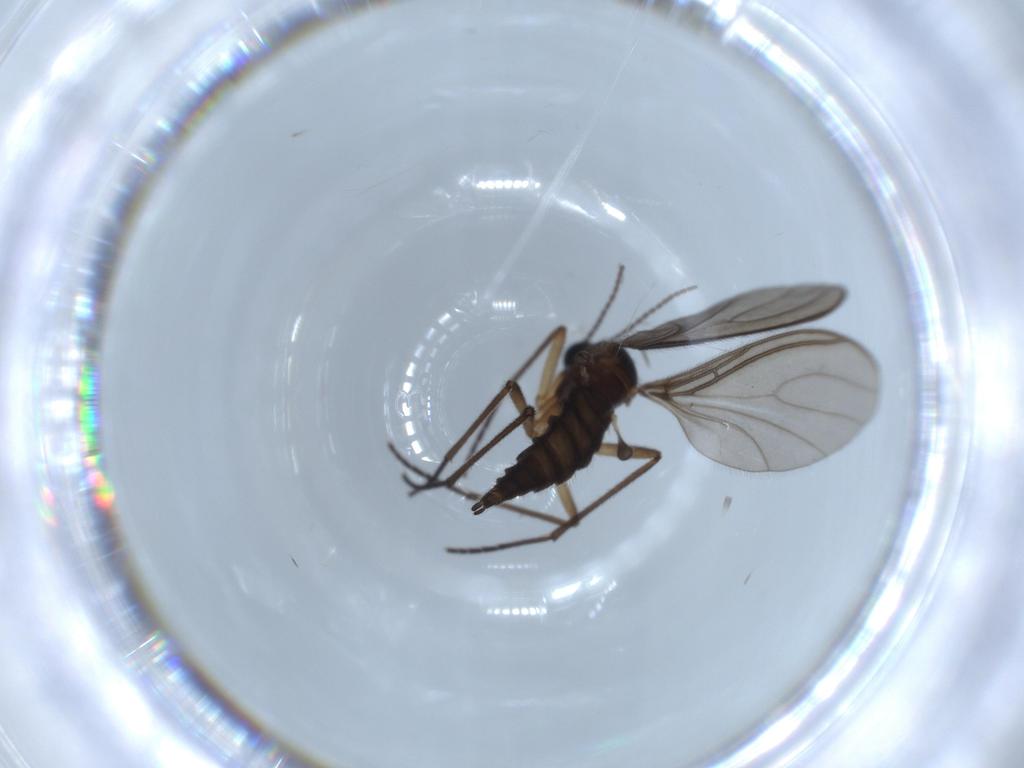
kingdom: Animalia
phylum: Arthropoda
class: Insecta
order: Diptera
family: Sciaridae
